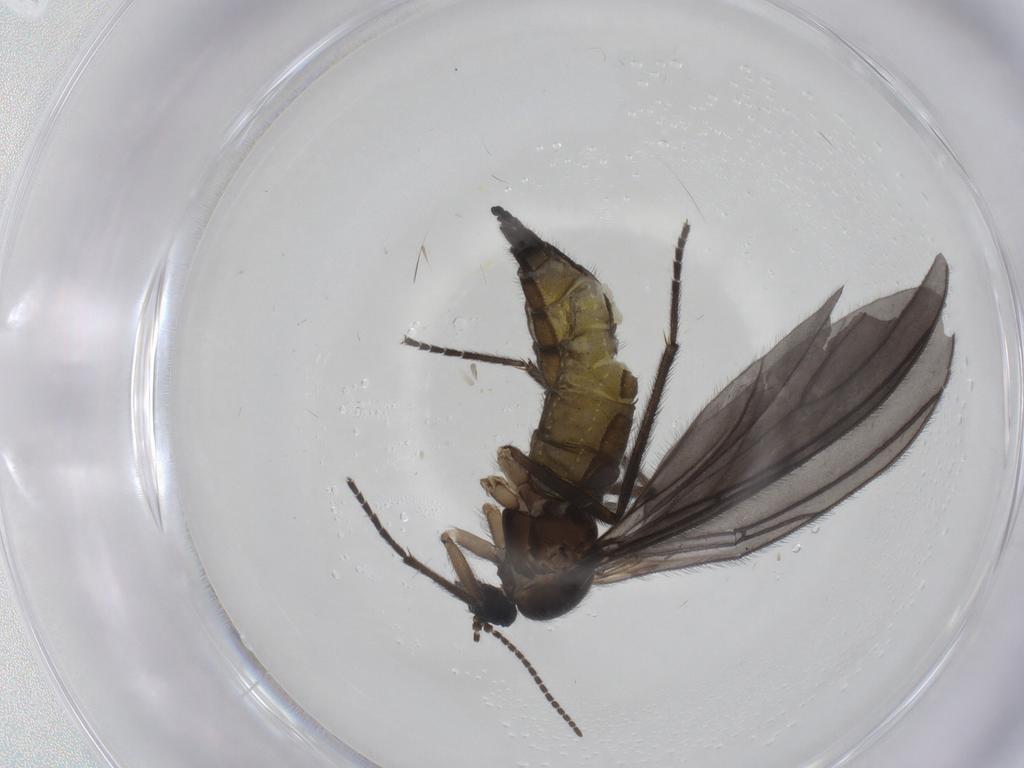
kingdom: Animalia
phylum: Arthropoda
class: Insecta
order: Diptera
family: Sciaridae
